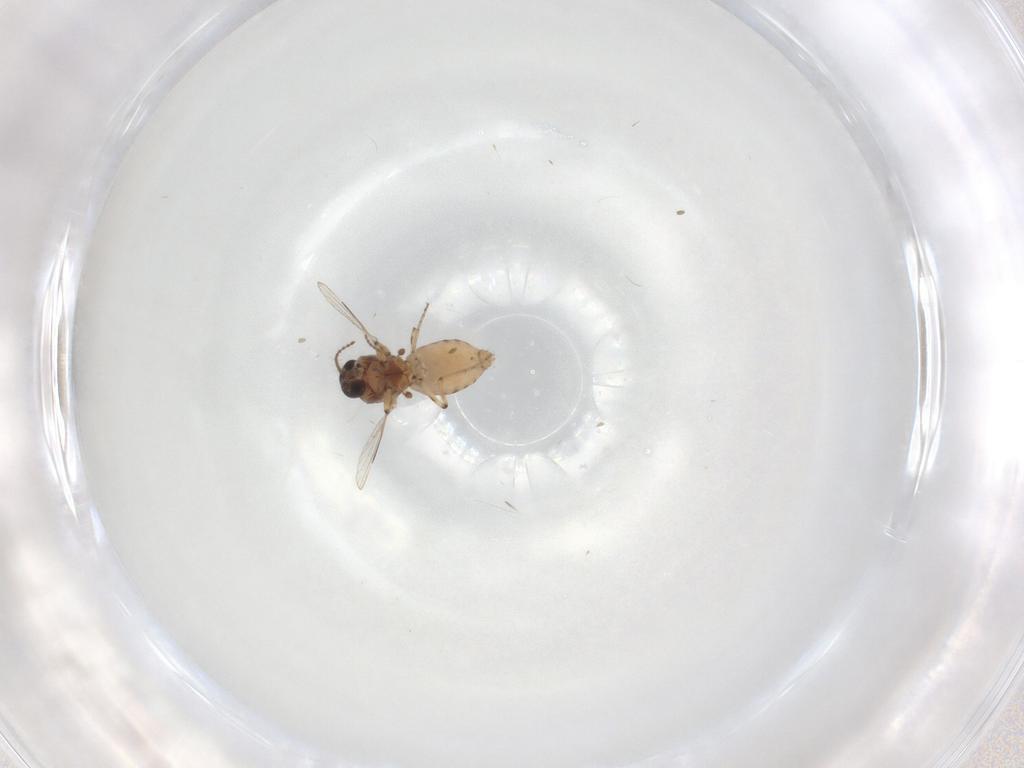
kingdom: Animalia
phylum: Arthropoda
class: Insecta
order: Diptera
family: Ceratopogonidae
